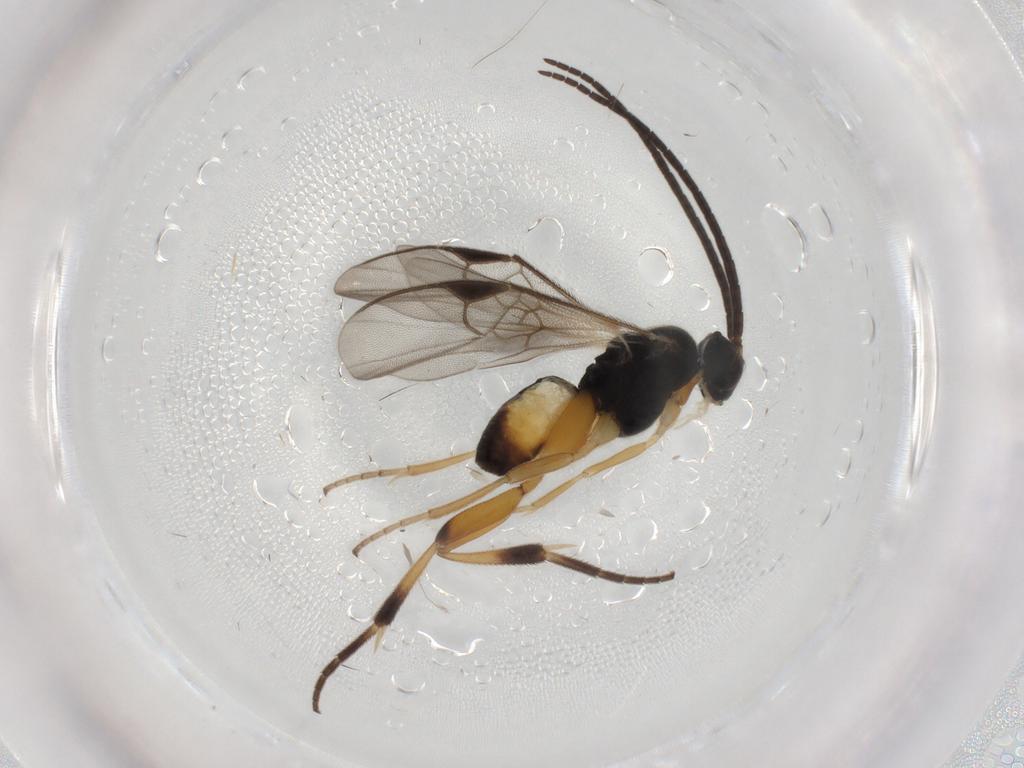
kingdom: Animalia
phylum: Arthropoda
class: Insecta
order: Hymenoptera
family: Braconidae
